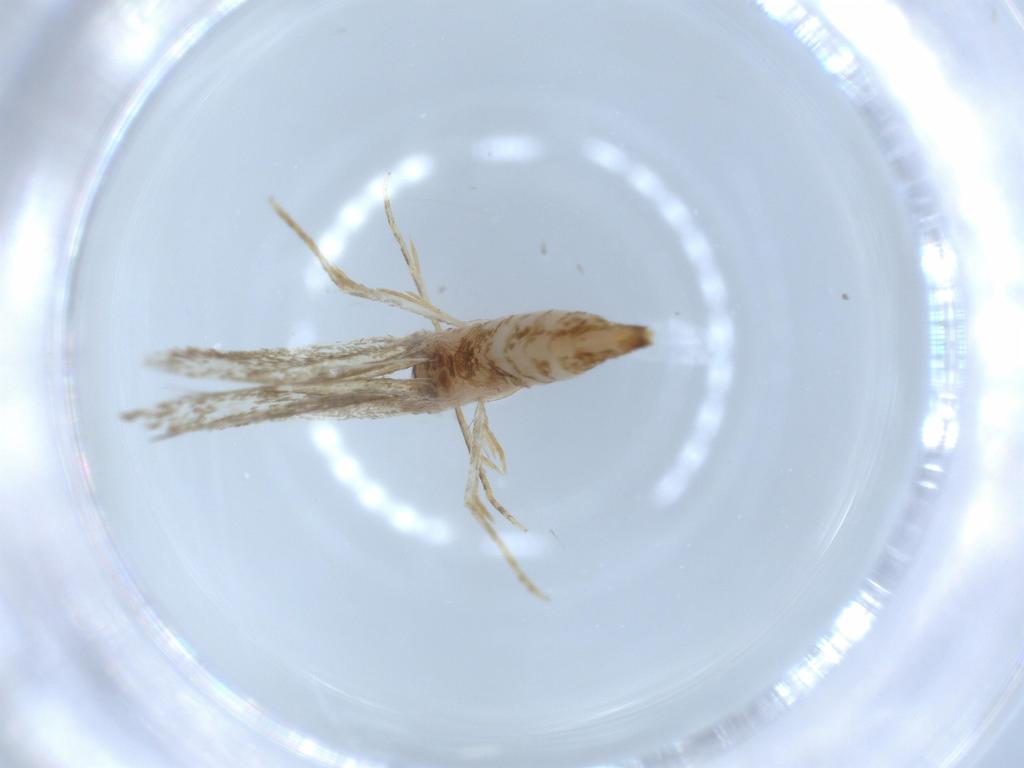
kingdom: Animalia
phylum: Arthropoda
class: Insecta
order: Lepidoptera
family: Tineidae
